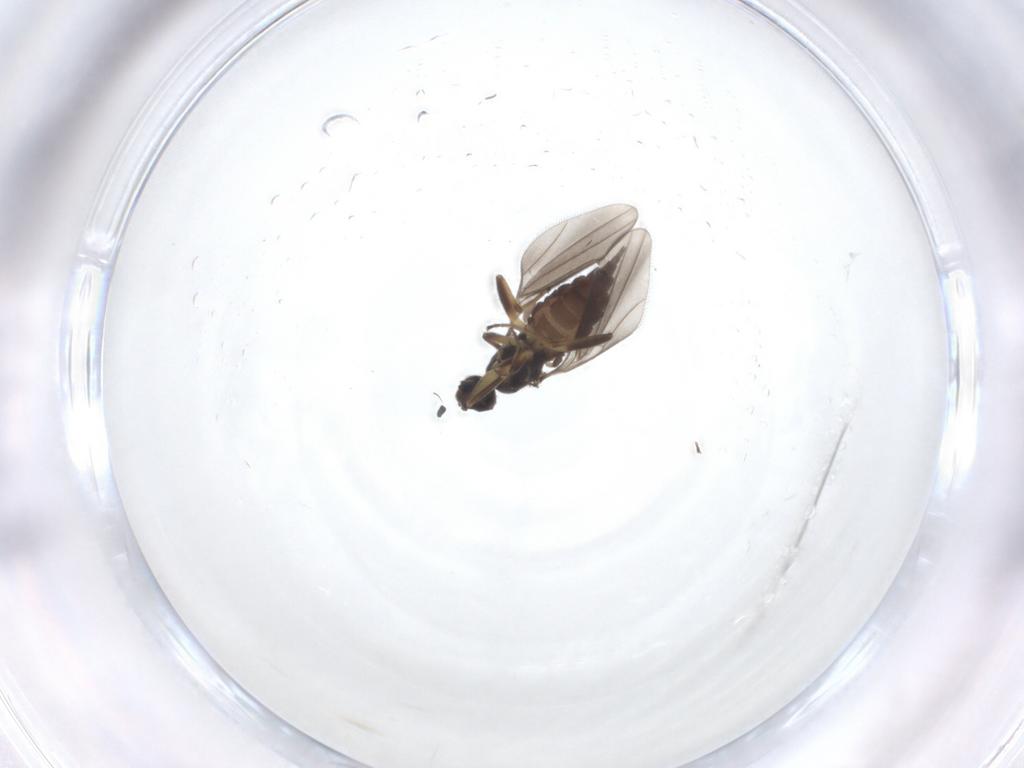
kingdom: Animalia
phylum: Arthropoda
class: Insecta
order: Diptera
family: Hybotidae
